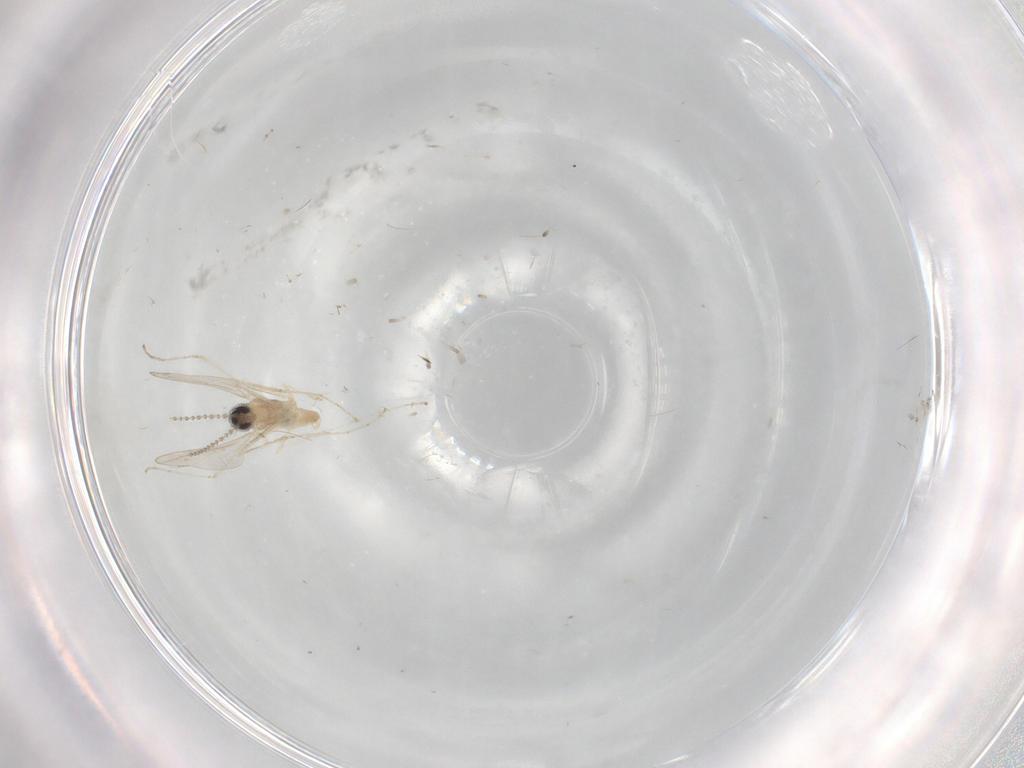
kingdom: Animalia
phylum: Arthropoda
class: Insecta
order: Diptera
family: Cecidomyiidae
